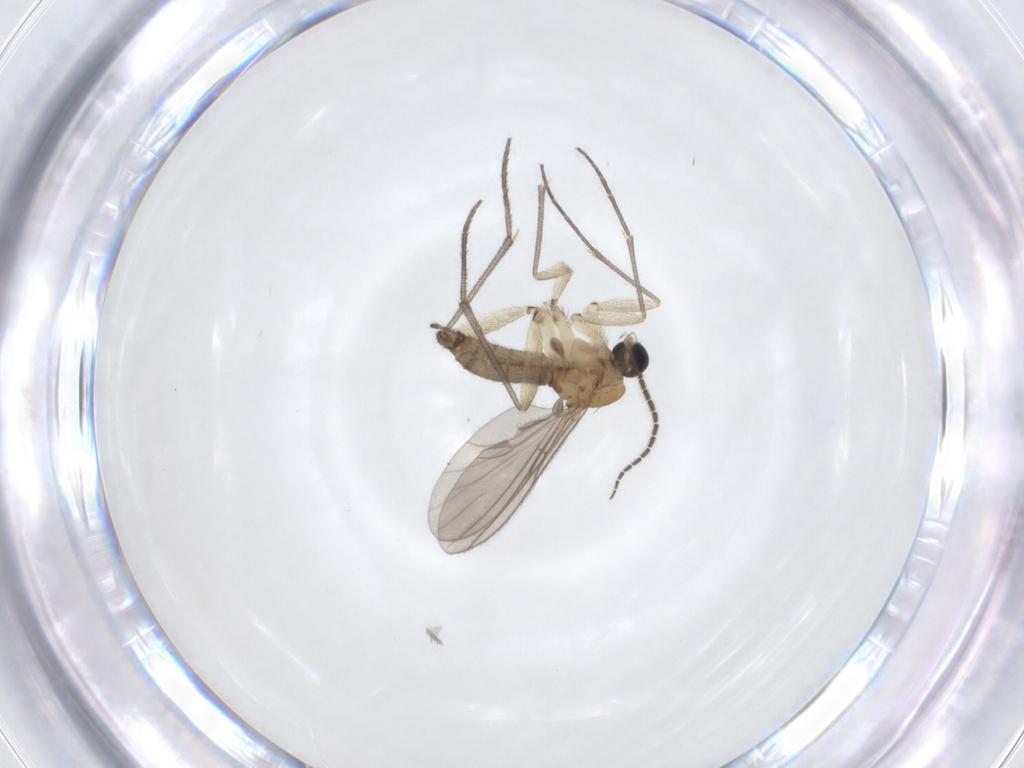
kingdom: Animalia
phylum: Arthropoda
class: Insecta
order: Diptera
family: Sciaridae
